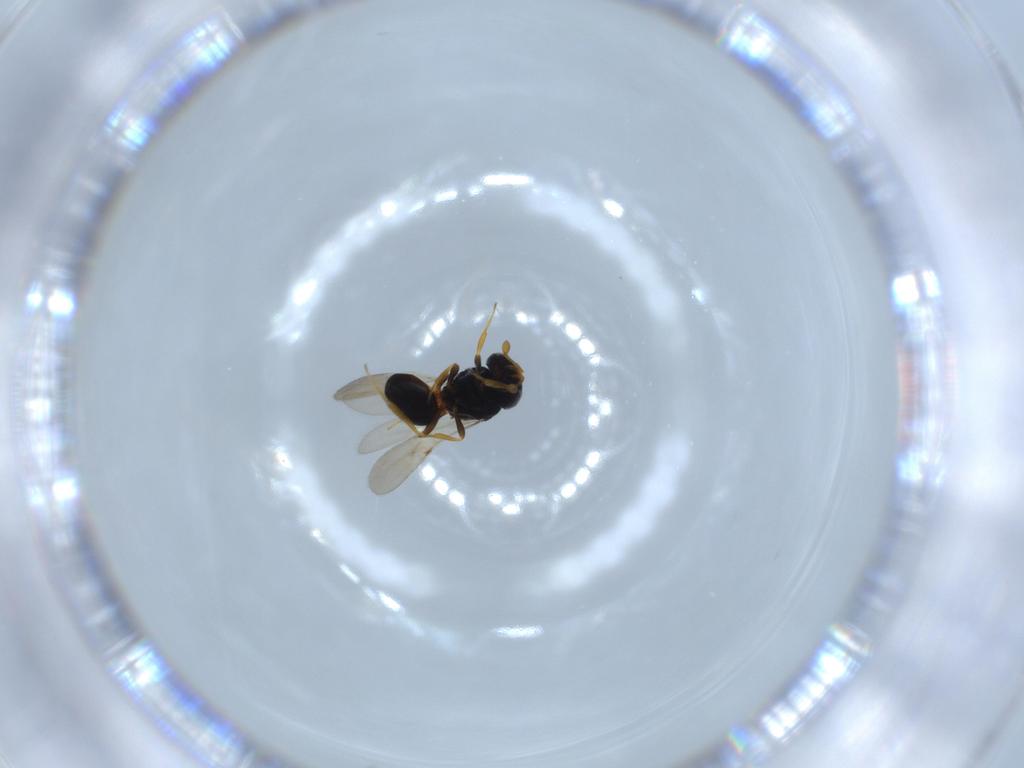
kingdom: Animalia
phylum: Arthropoda
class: Insecta
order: Hymenoptera
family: Scelionidae
